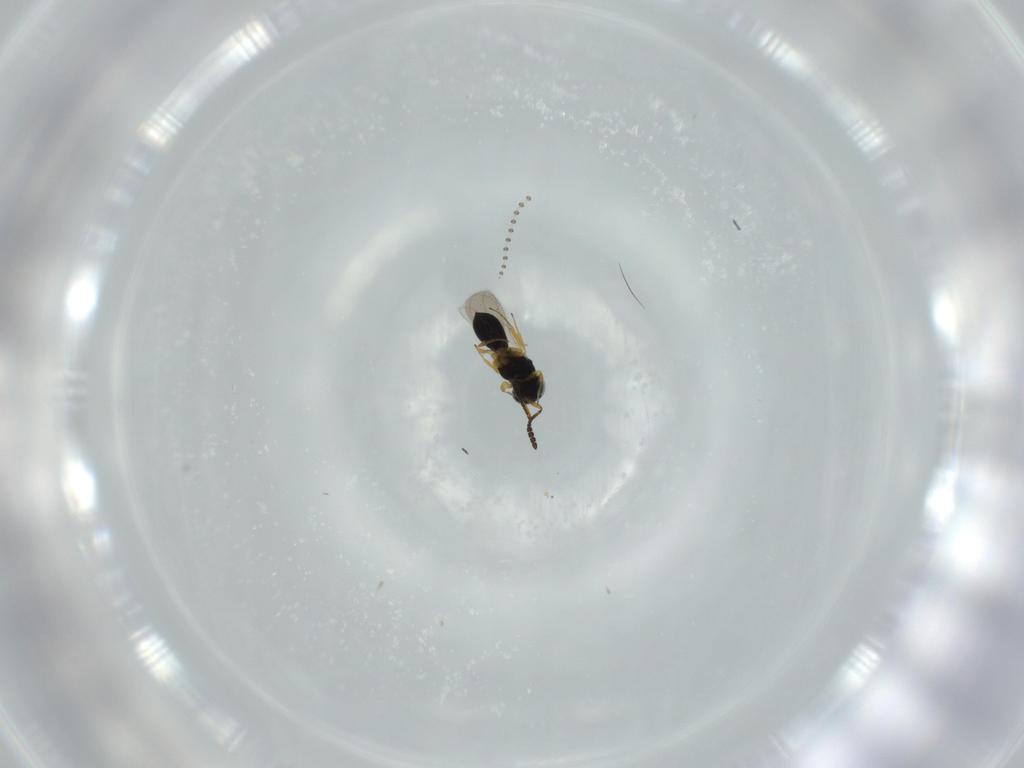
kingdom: Animalia
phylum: Arthropoda
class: Insecta
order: Hymenoptera
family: Scelionidae
